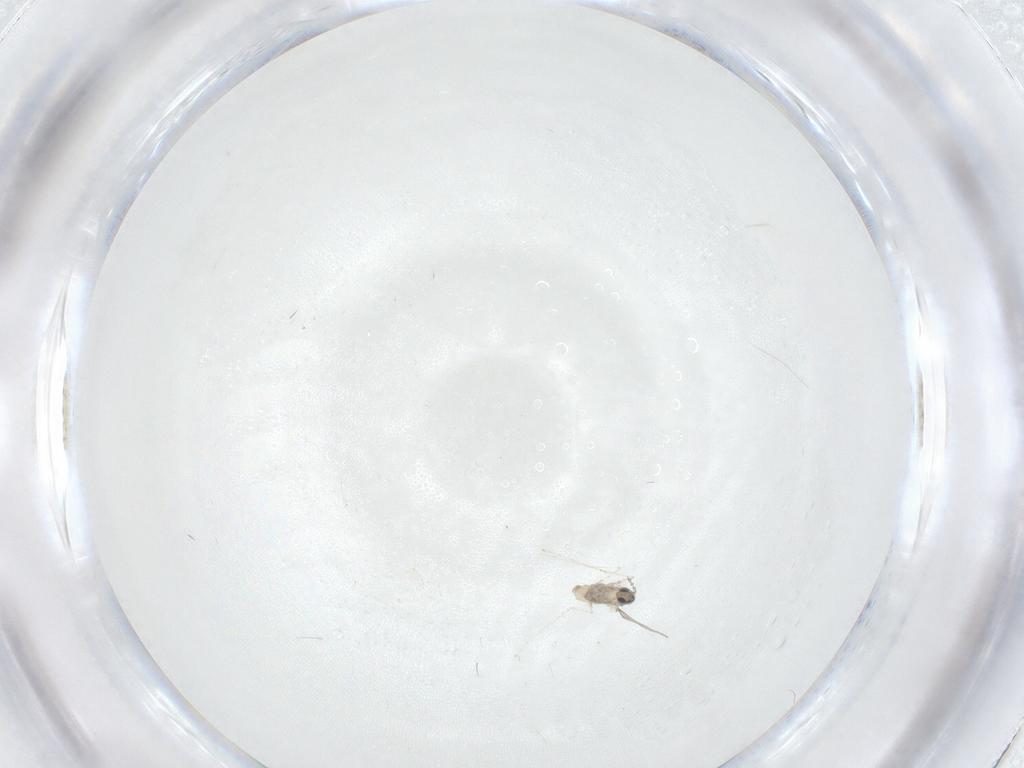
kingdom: Animalia
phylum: Arthropoda
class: Insecta
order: Diptera
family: Cecidomyiidae
